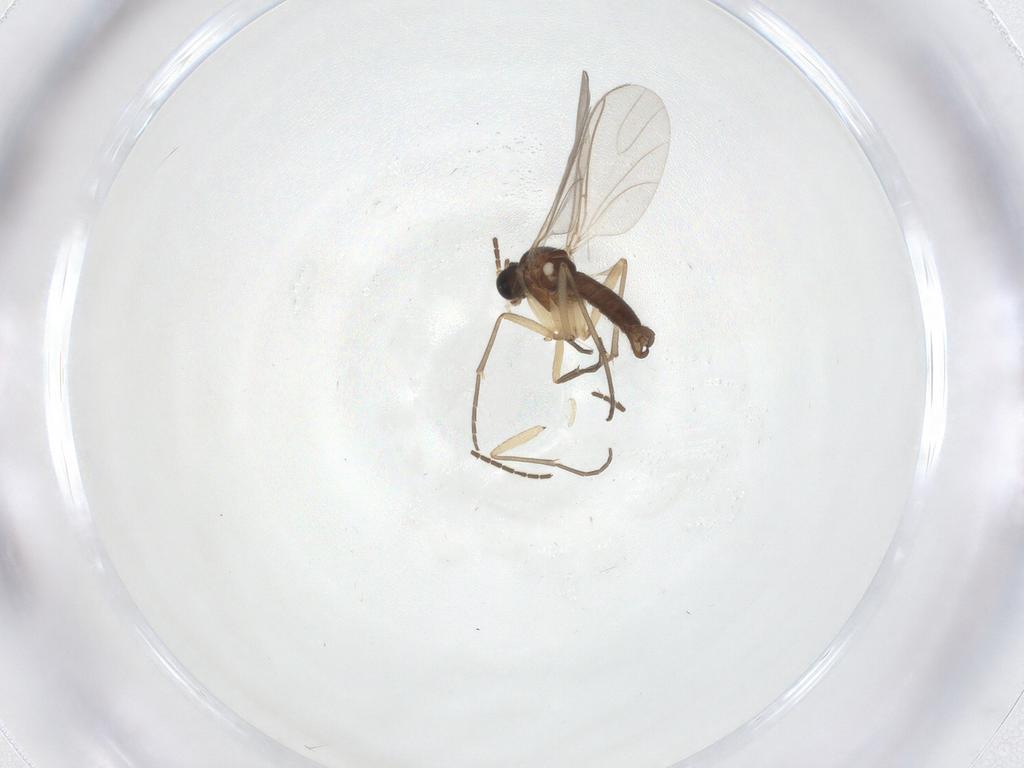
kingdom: Animalia
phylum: Arthropoda
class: Insecta
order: Diptera
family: Sciaridae
